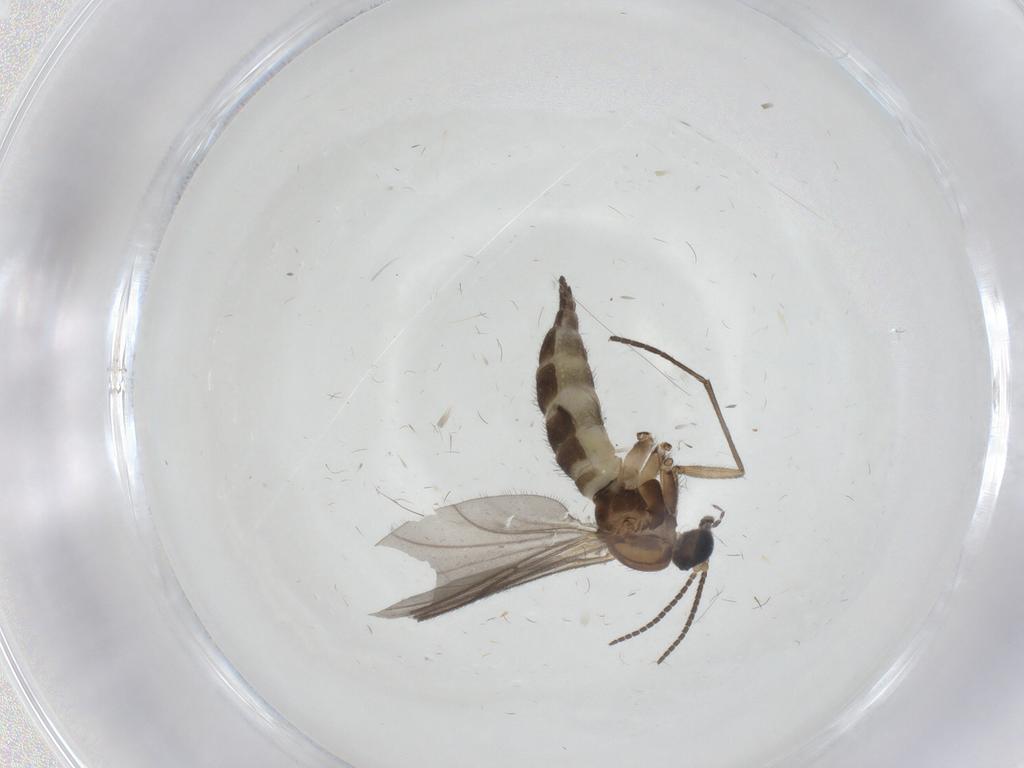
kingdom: Animalia
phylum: Arthropoda
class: Insecta
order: Diptera
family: Sciaridae
